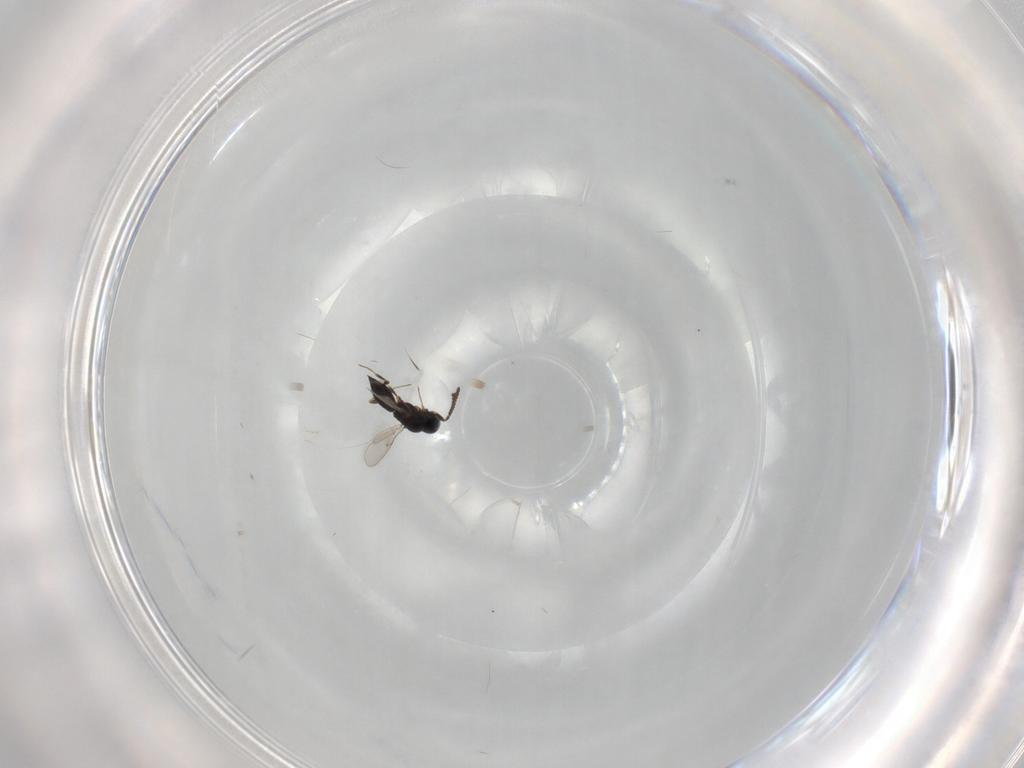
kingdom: Animalia
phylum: Arthropoda
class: Insecta
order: Hymenoptera
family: Scelionidae
